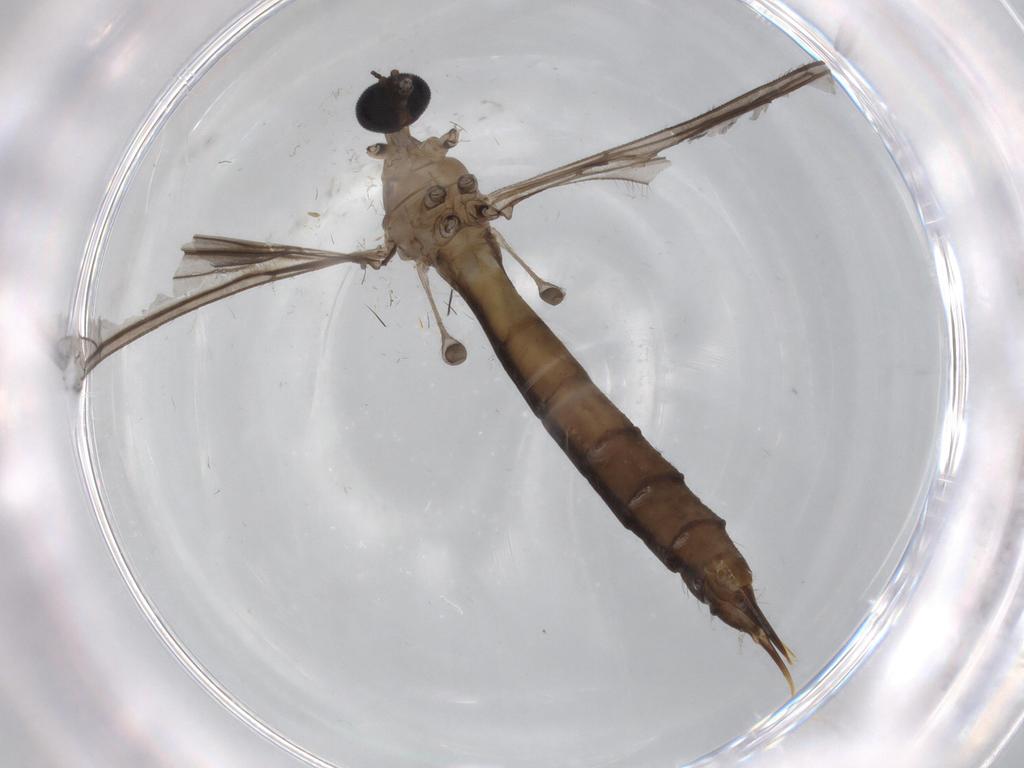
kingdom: Animalia
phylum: Arthropoda
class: Insecta
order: Diptera
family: Limoniidae
